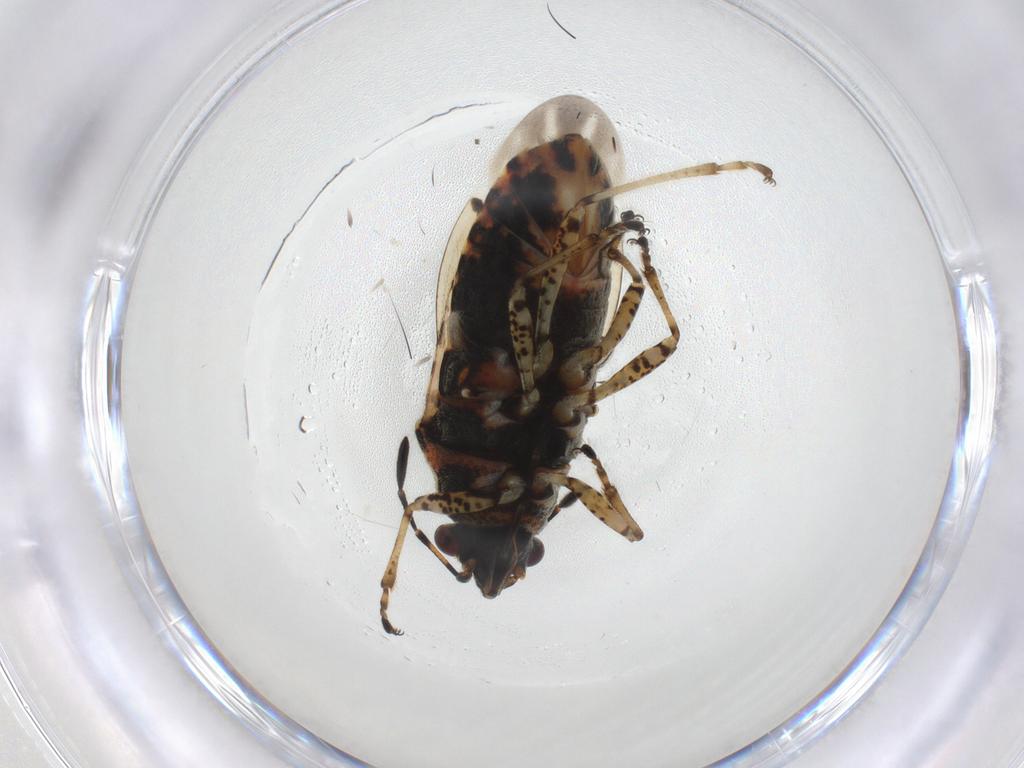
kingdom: Animalia
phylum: Arthropoda
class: Insecta
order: Hemiptera
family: Lygaeidae
